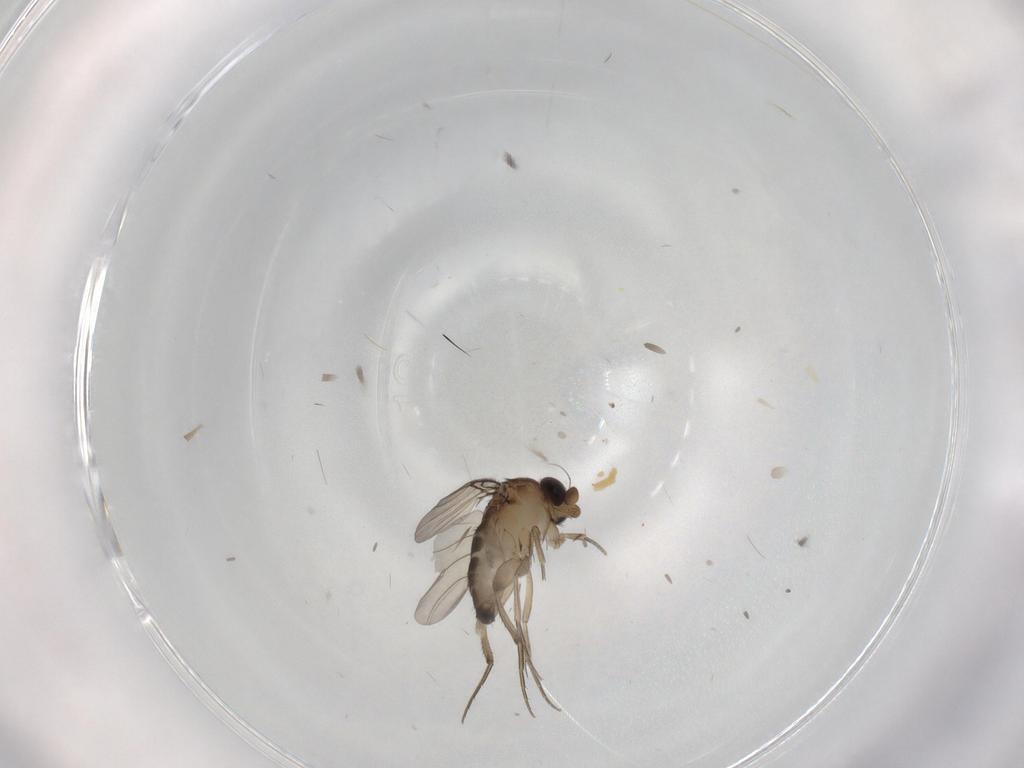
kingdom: Animalia
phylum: Arthropoda
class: Insecta
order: Diptera
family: Phoridae
